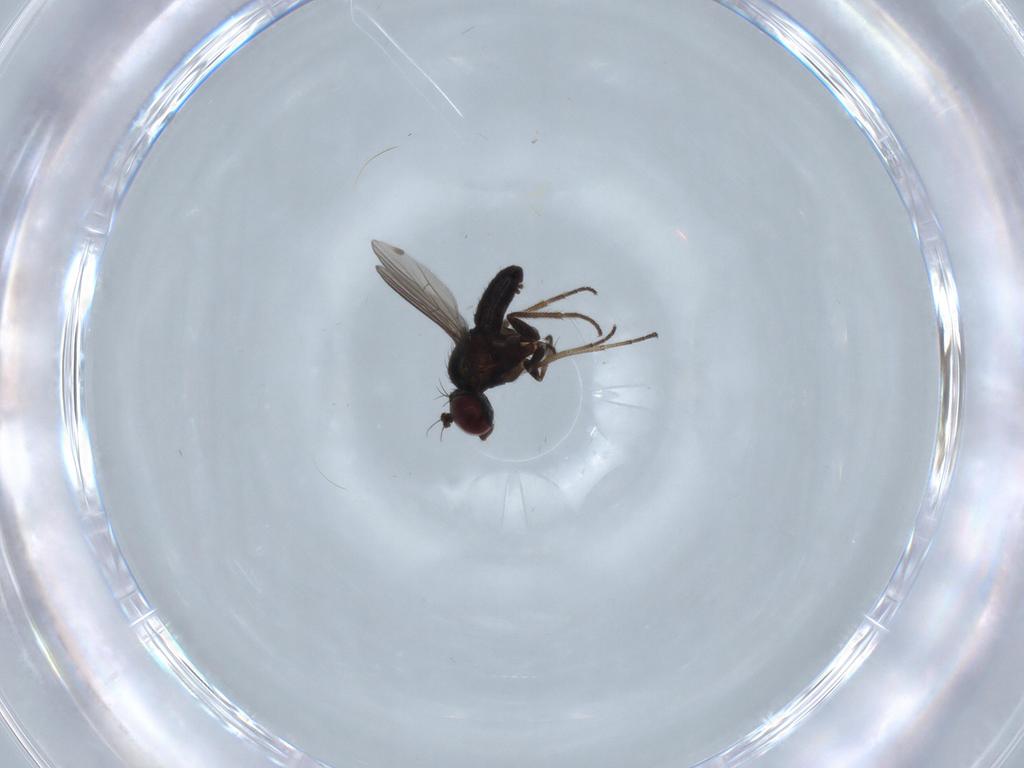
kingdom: Animalia
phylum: Arthropoda
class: Insecta
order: Diptera
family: Dolichopodidae
